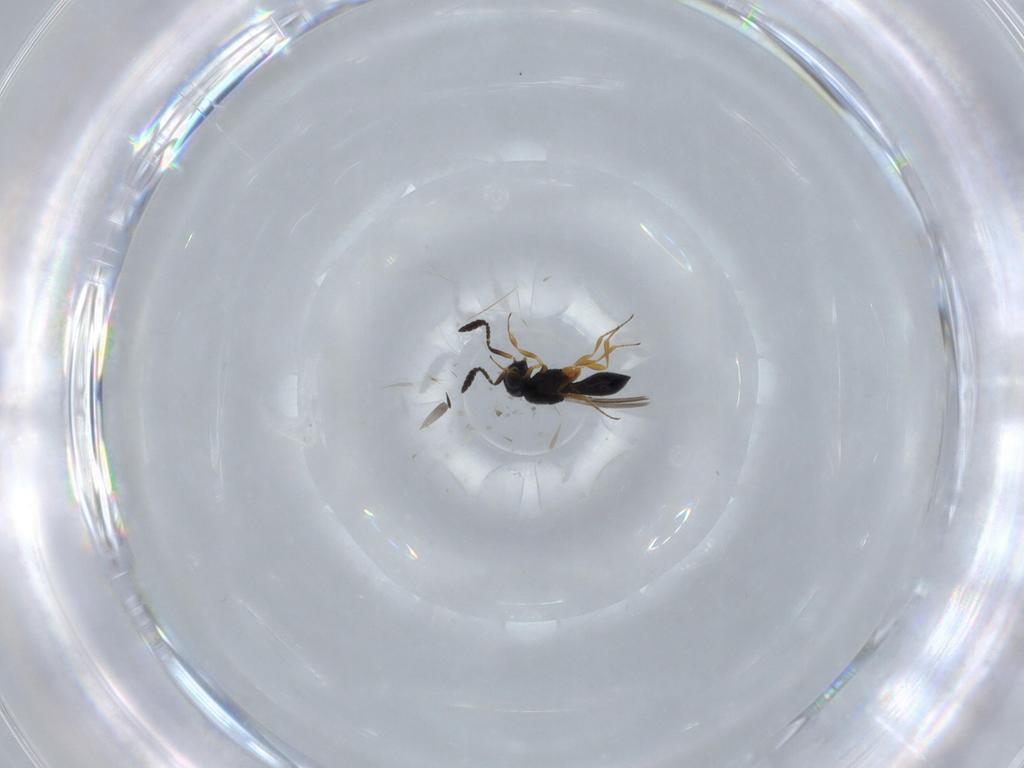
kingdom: Animalia
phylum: Arthropoda
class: Insecta
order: Hymenoptera
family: Scelionidae
